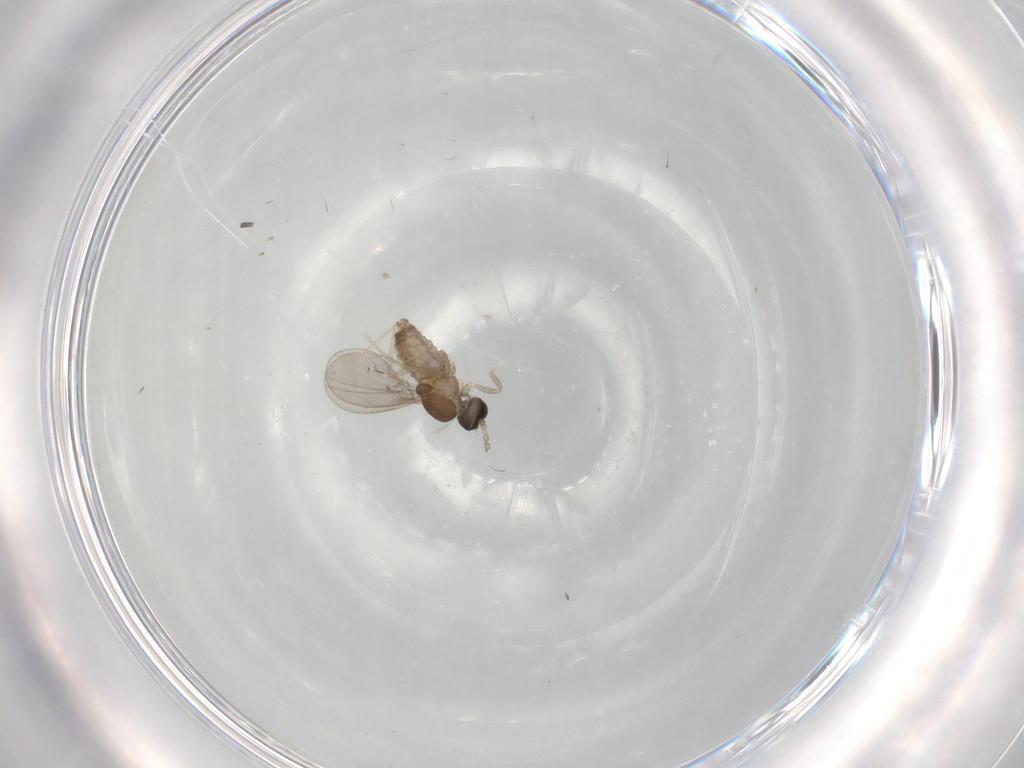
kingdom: Animalia
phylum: Arthropoda
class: Insecta
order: Diptera
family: Cecidomyiidae
